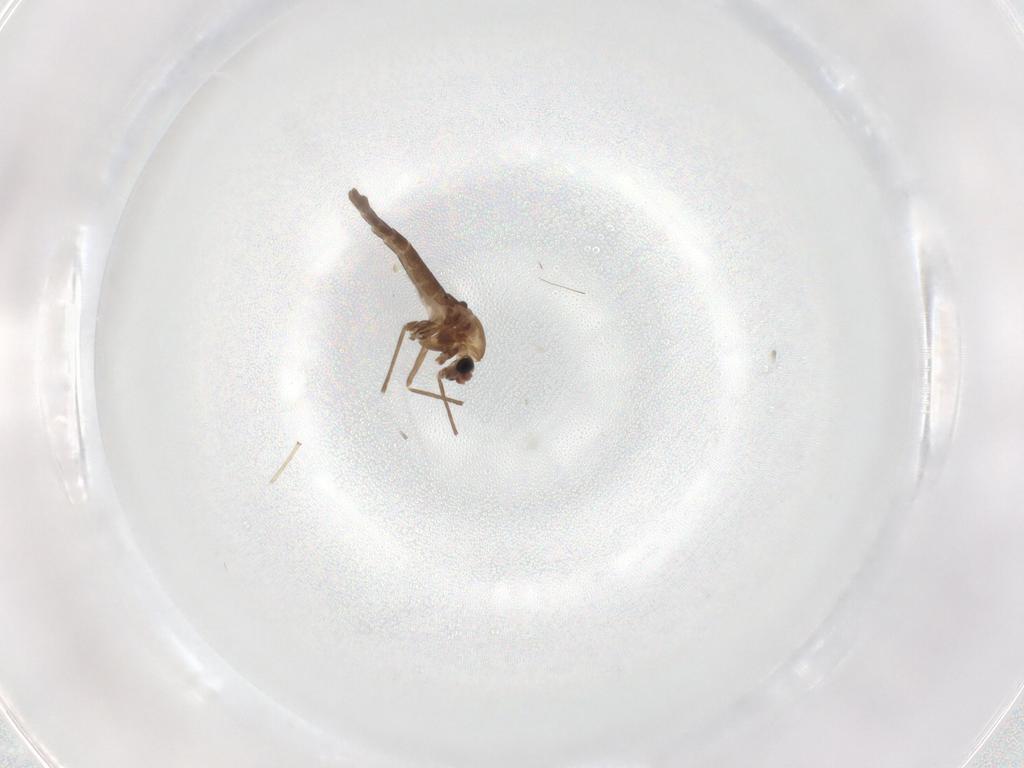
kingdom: Animalia
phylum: Arthropoda
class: Insecta
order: Diptera
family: Chironomidae
